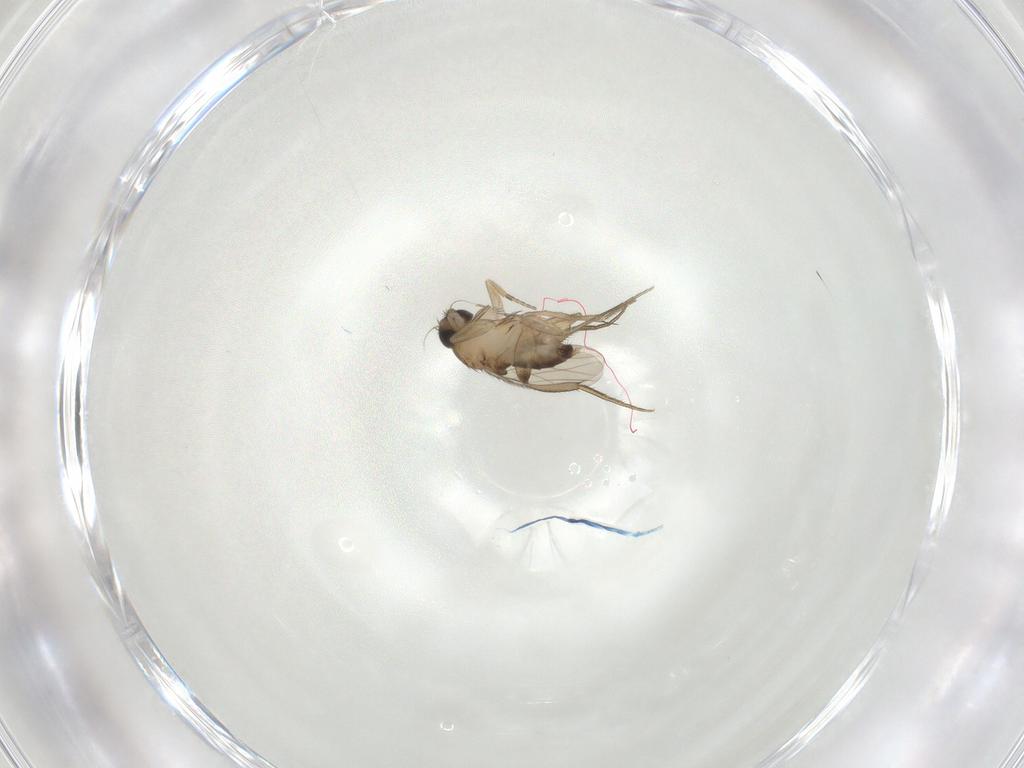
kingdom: Animalia
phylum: Arthropoda
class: Insecta
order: Diptera
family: Phoridae
